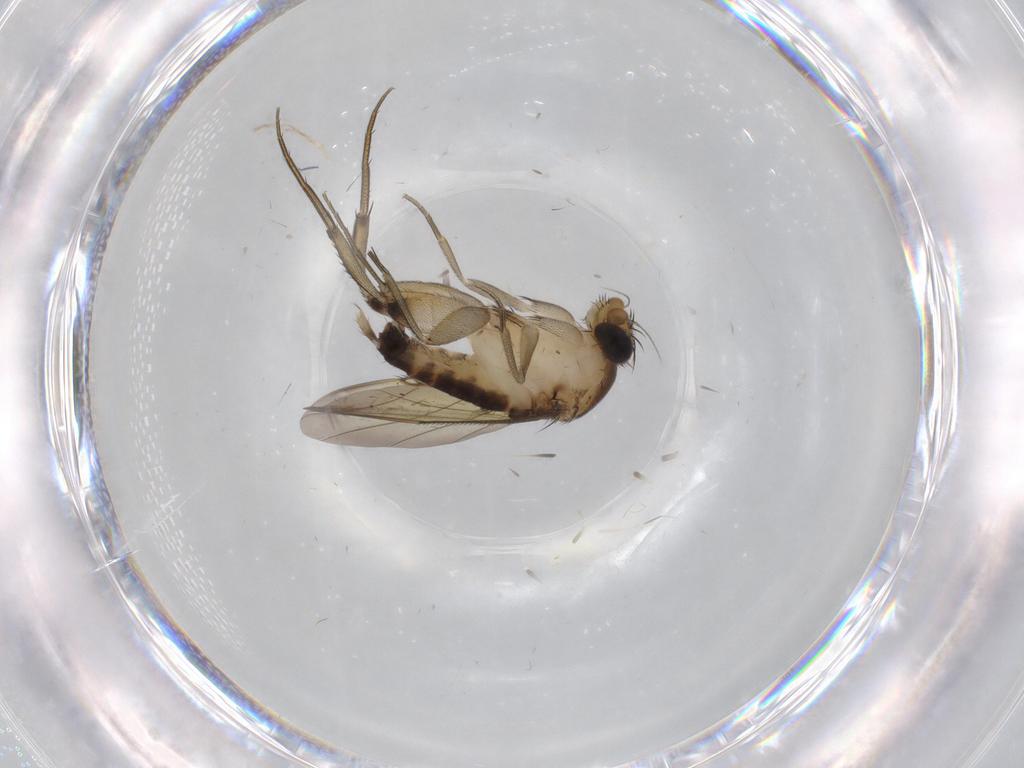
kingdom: Animalia
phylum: Arthropoda
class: Insecta
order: Diptera
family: Phoridae
